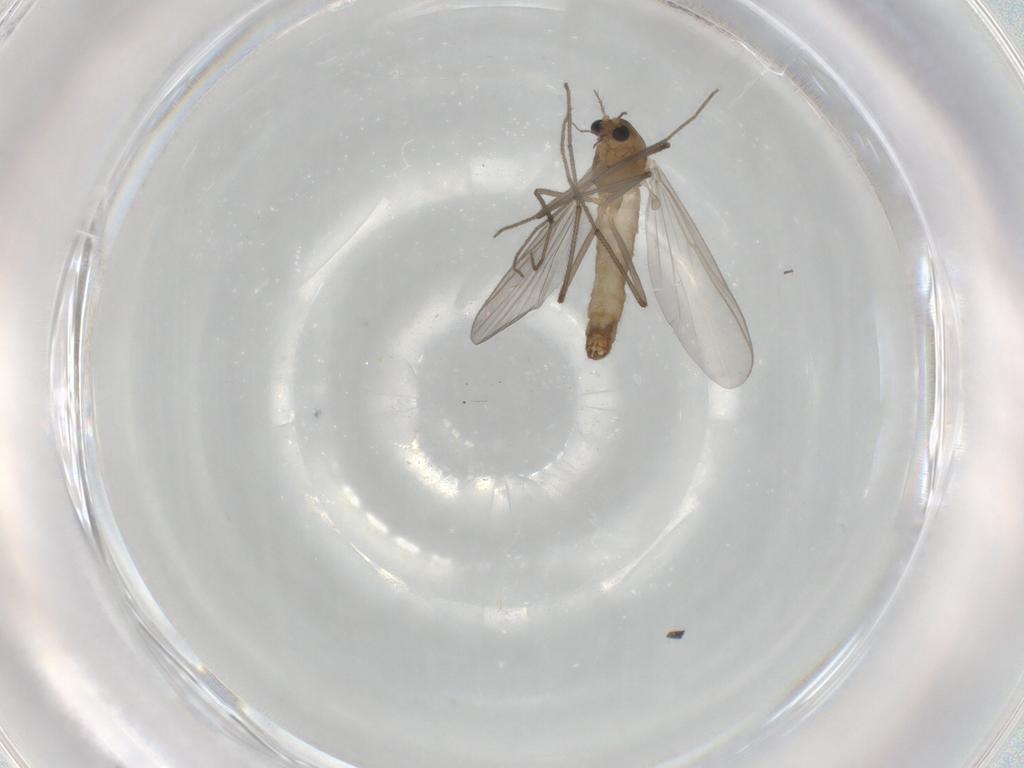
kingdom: Animalia
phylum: Arthropoda
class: Insecta
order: Diptera
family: Chironomidae
